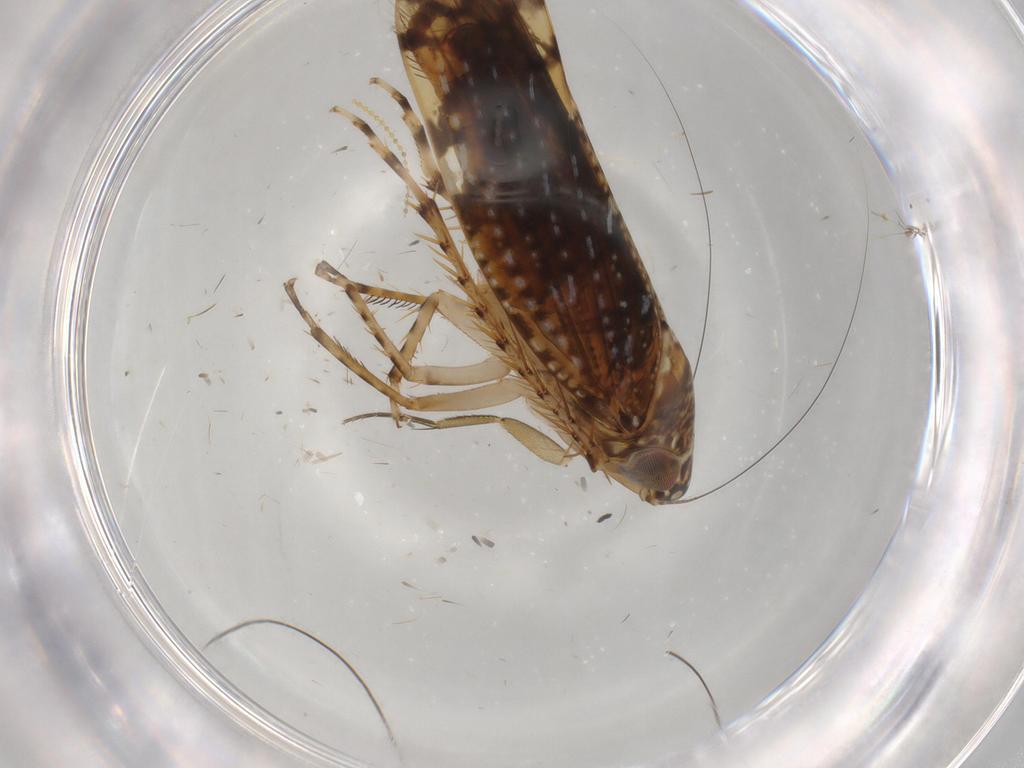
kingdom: Animalia
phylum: Arthropoda
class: Insecta
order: Hemiptera
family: Cicadellidae
